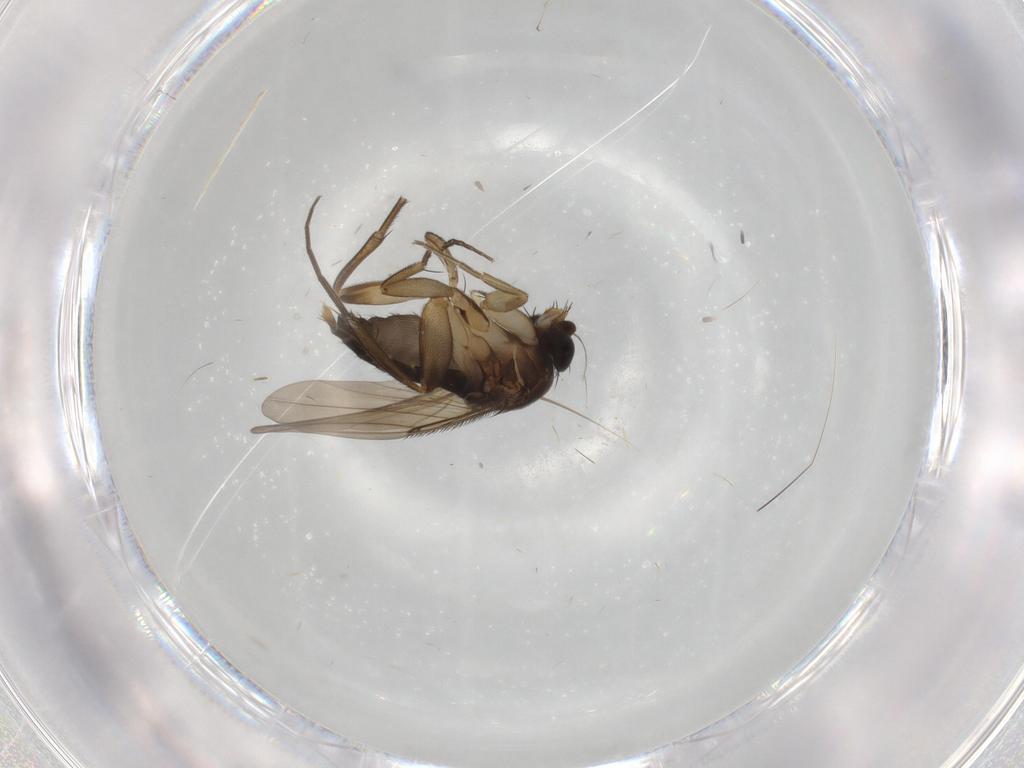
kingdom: Animalia
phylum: Arthropoda
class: Insecta
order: Diptera
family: Phoridae
